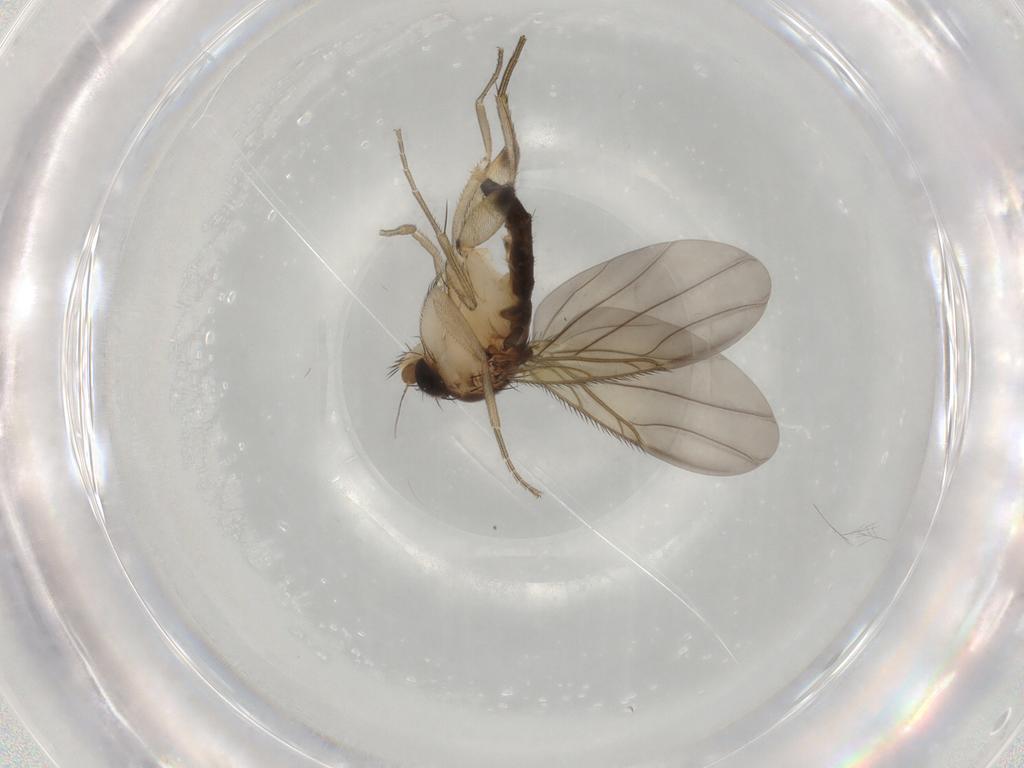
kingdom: Animalia
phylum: Arthropoda
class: Insecta
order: Diptera
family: Phoridae
